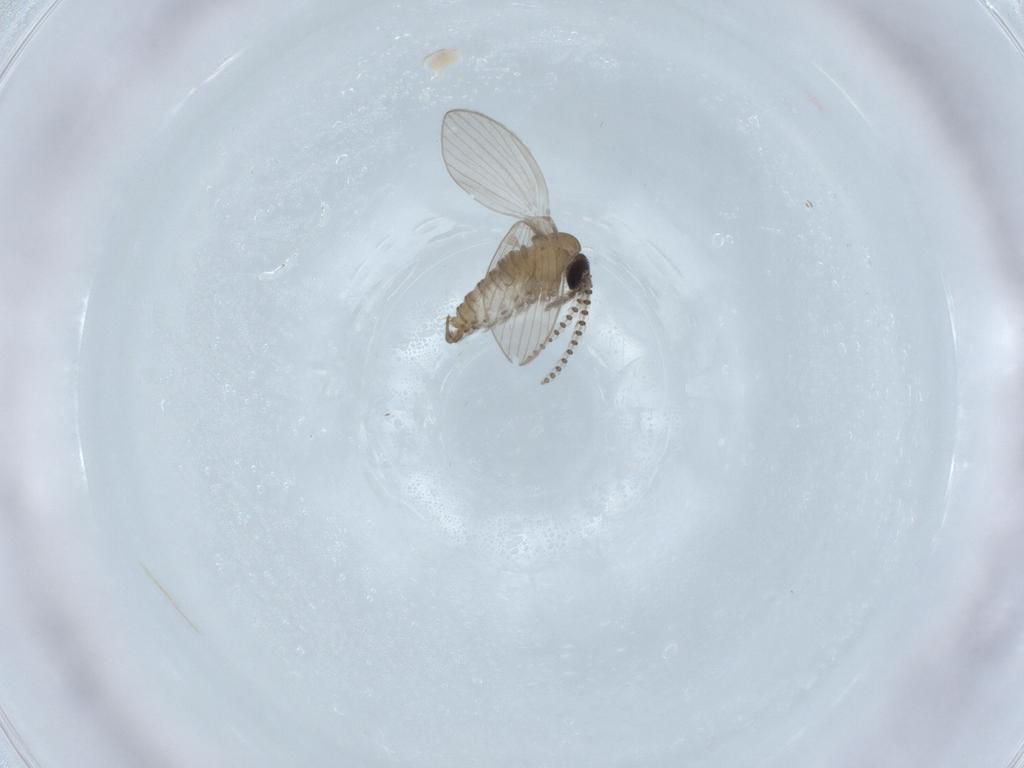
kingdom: Animalia
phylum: Arthropoda
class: Insecta
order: Diptera
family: Psychodidae
